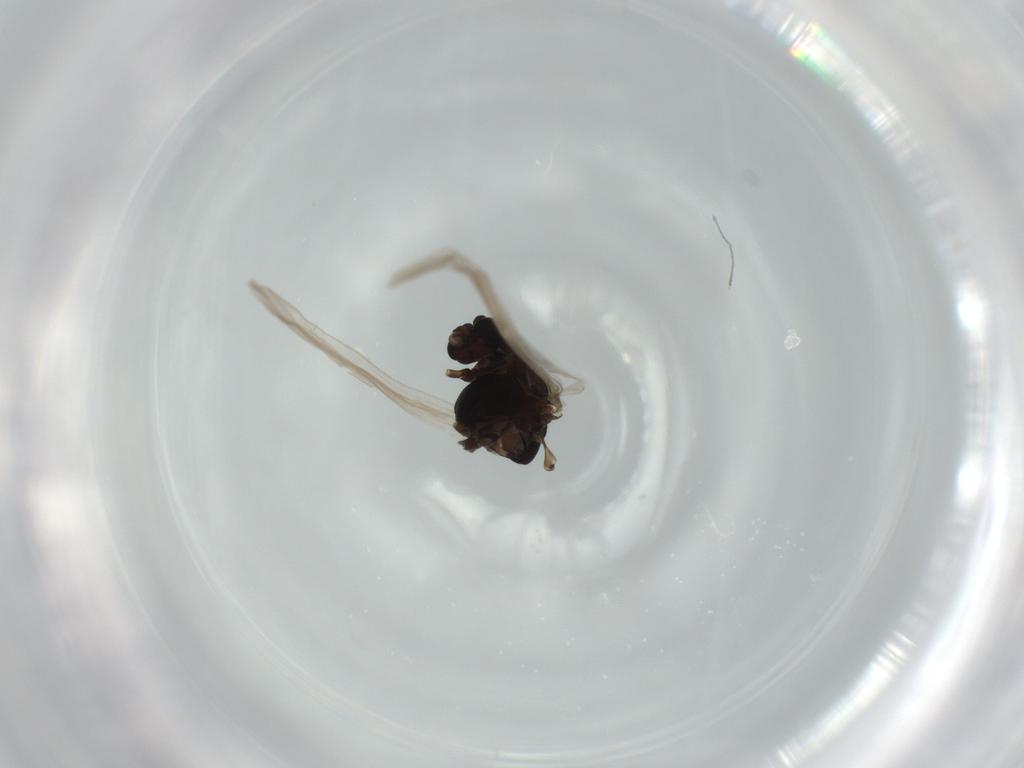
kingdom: Animalia
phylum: Arthropoda
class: Insecta
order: Diptera
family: Chironomidae
